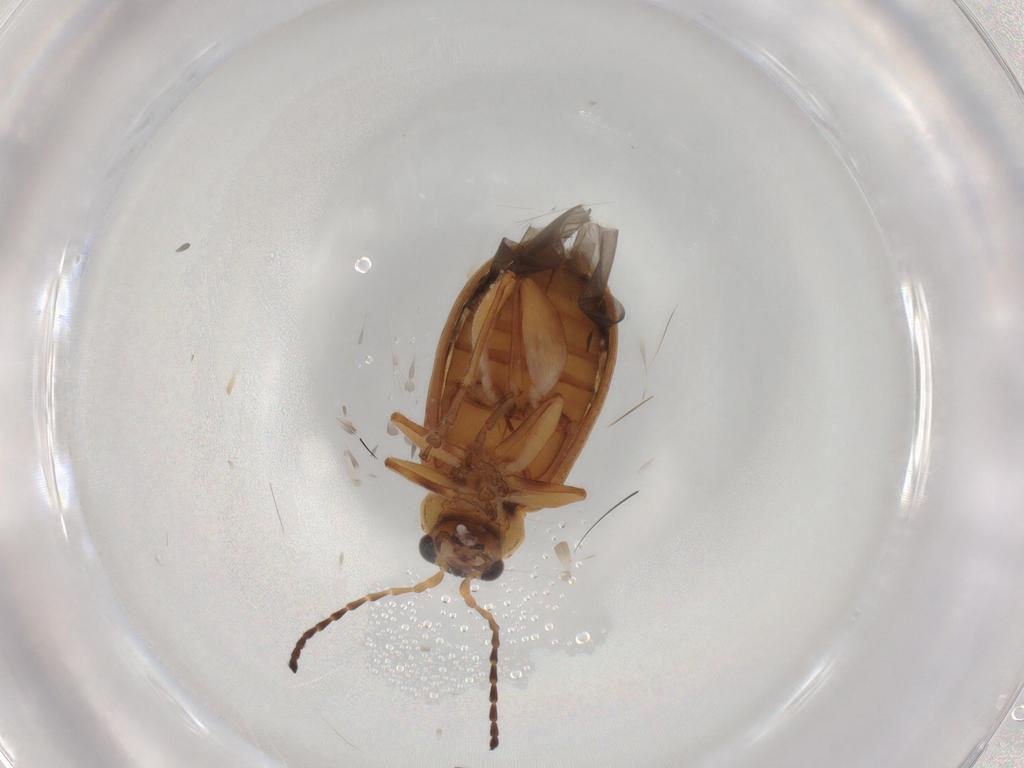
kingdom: Animalia
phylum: Arthropoda
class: Insecta
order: Coleoptera
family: Chrysomelidae
